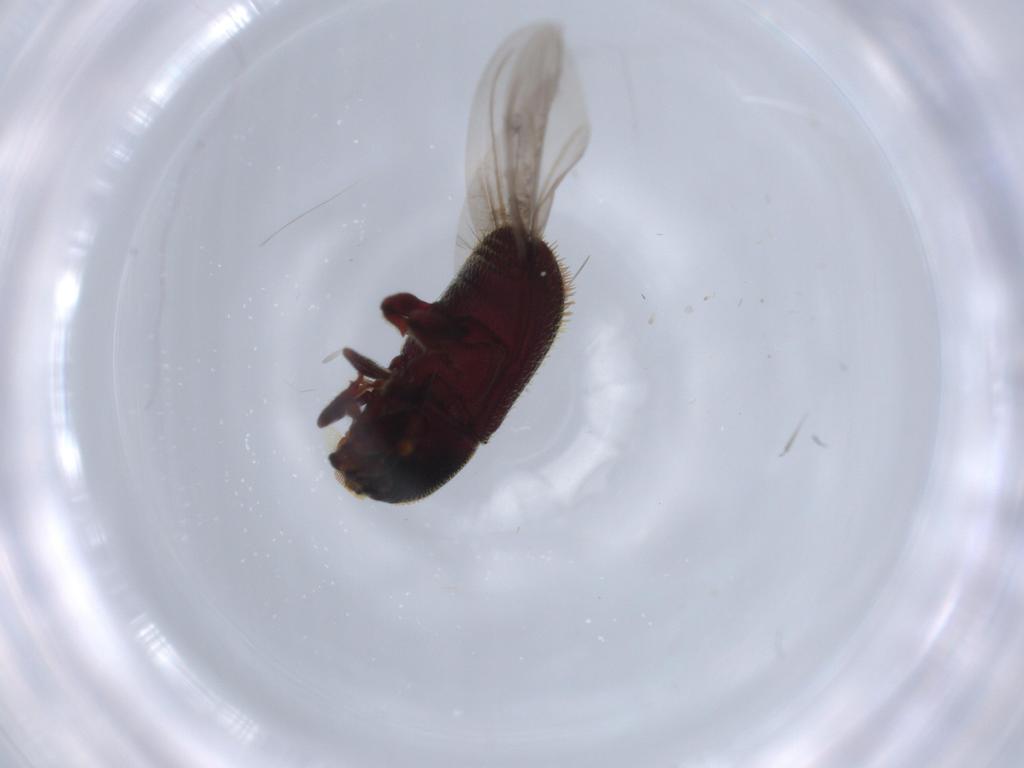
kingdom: Animalia
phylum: Arthropoda
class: Insecta
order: Coleoptera
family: Coccinellidae
